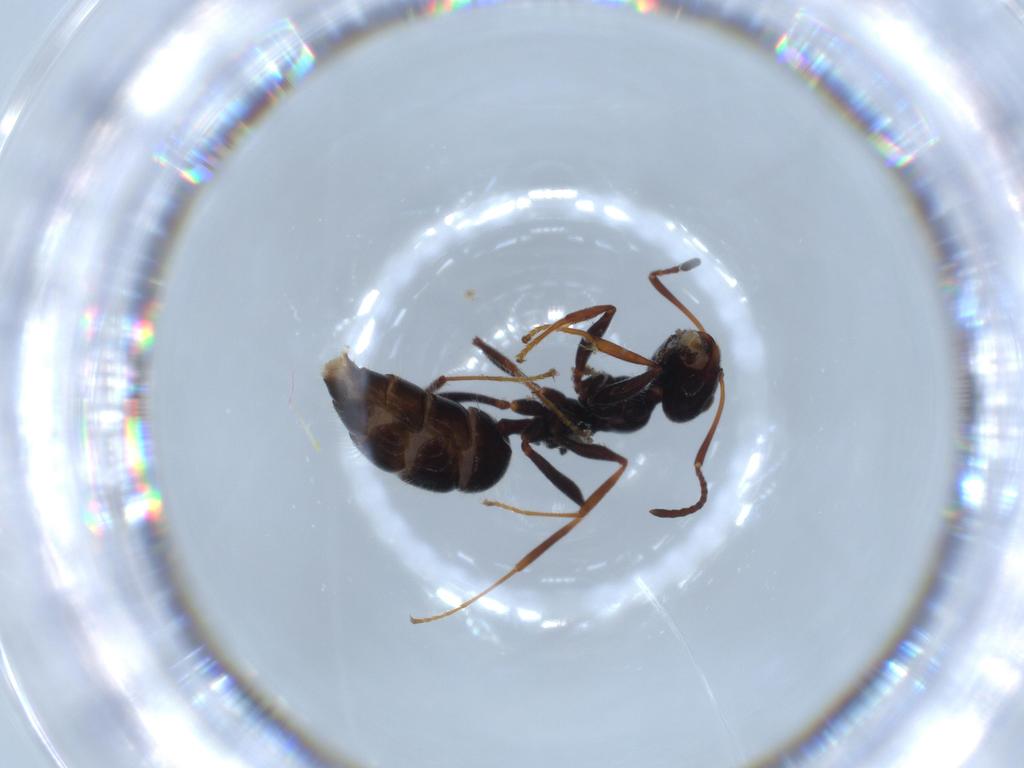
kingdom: Animalia
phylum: Arthropoda
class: Insecta
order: Hymenoptera
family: Formicidae
